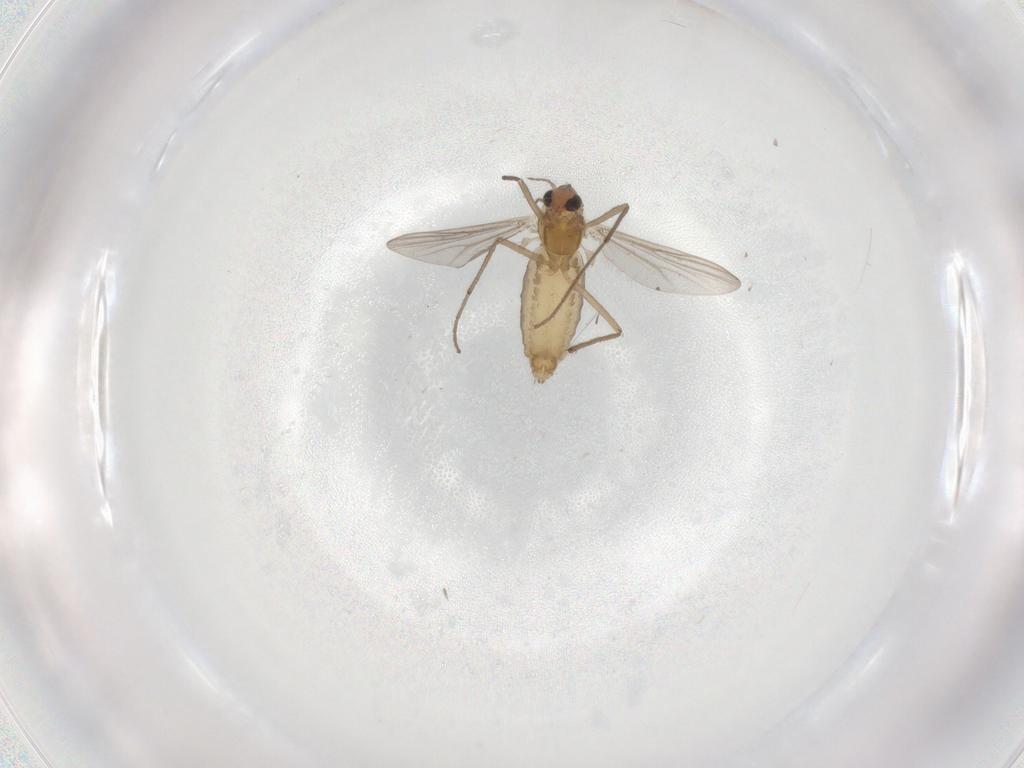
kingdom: Animalia
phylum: Arthropoda
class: Insecta
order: Diptera
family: Chironomidae
